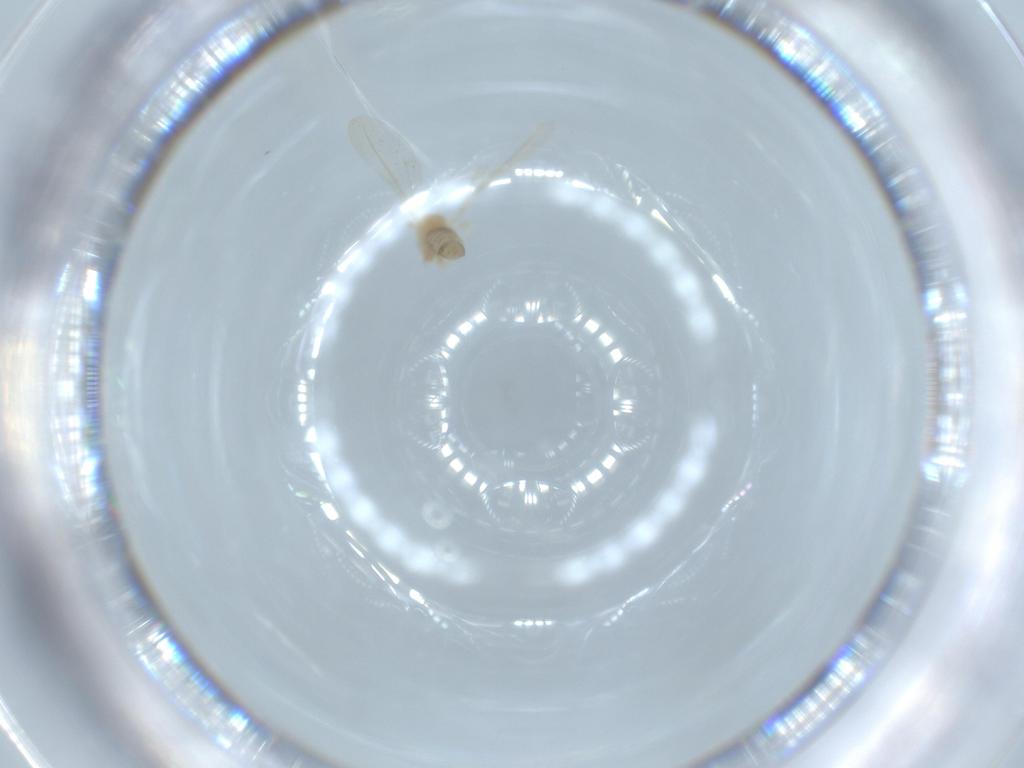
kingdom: Animalia
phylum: Arthropoda
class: Insecta
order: Diptera
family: Cecidomyiidae
